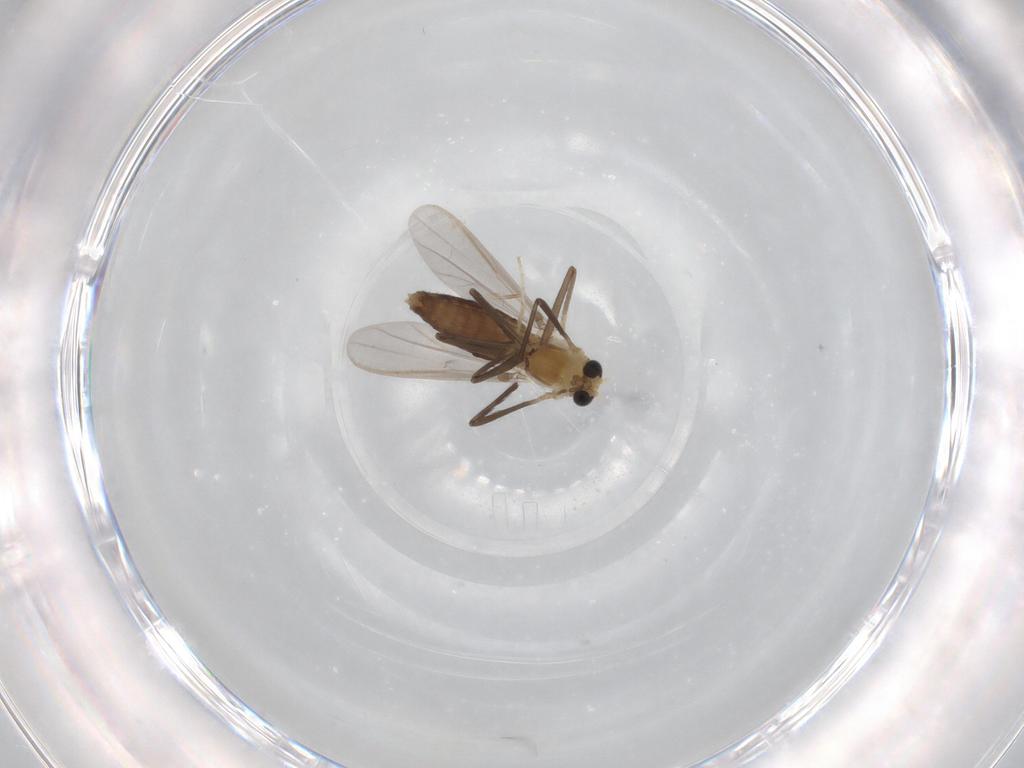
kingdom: Animalia
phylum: Arthropoda
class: Insecta
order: Diptera
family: Chironomidae
